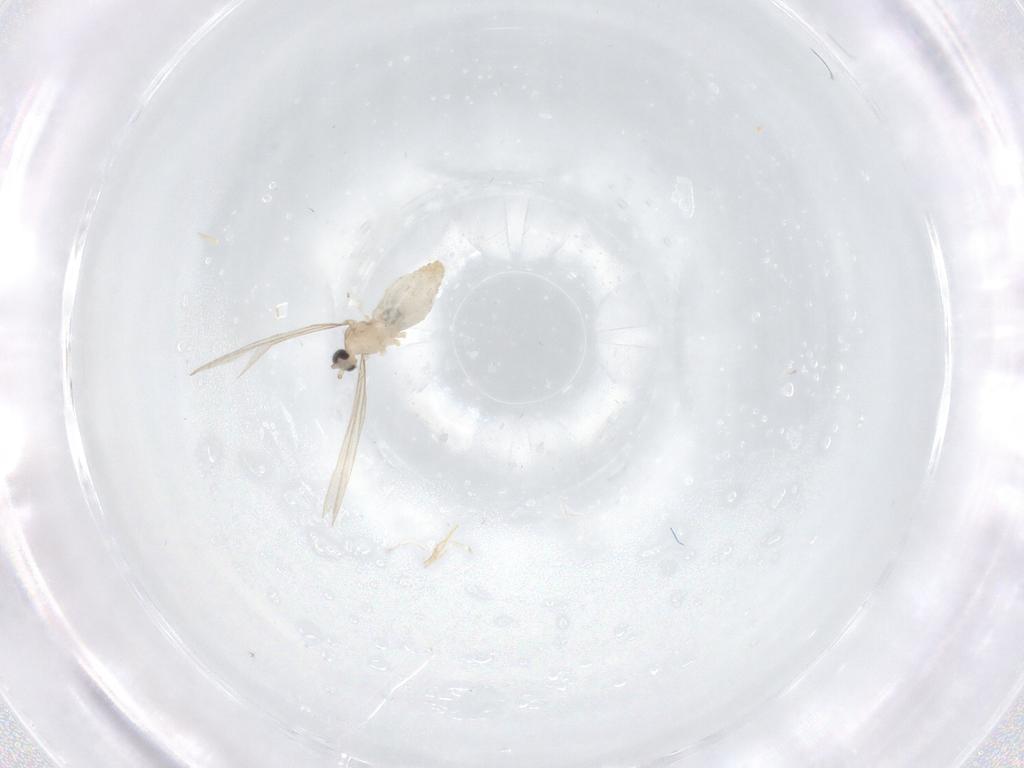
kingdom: Animalia
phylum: Arthropoda
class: Insecta
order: Diptera
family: Cecidomyiidae
